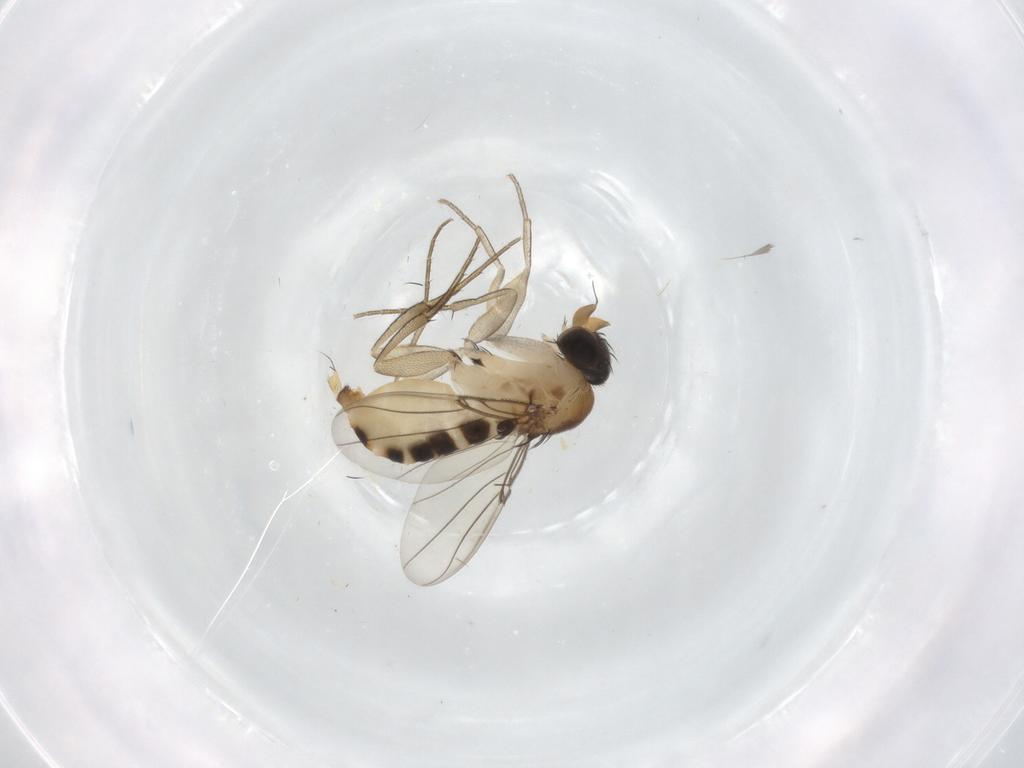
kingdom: Animalia
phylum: Arthropoda
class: Insecta
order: Diptera
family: Phoridae
